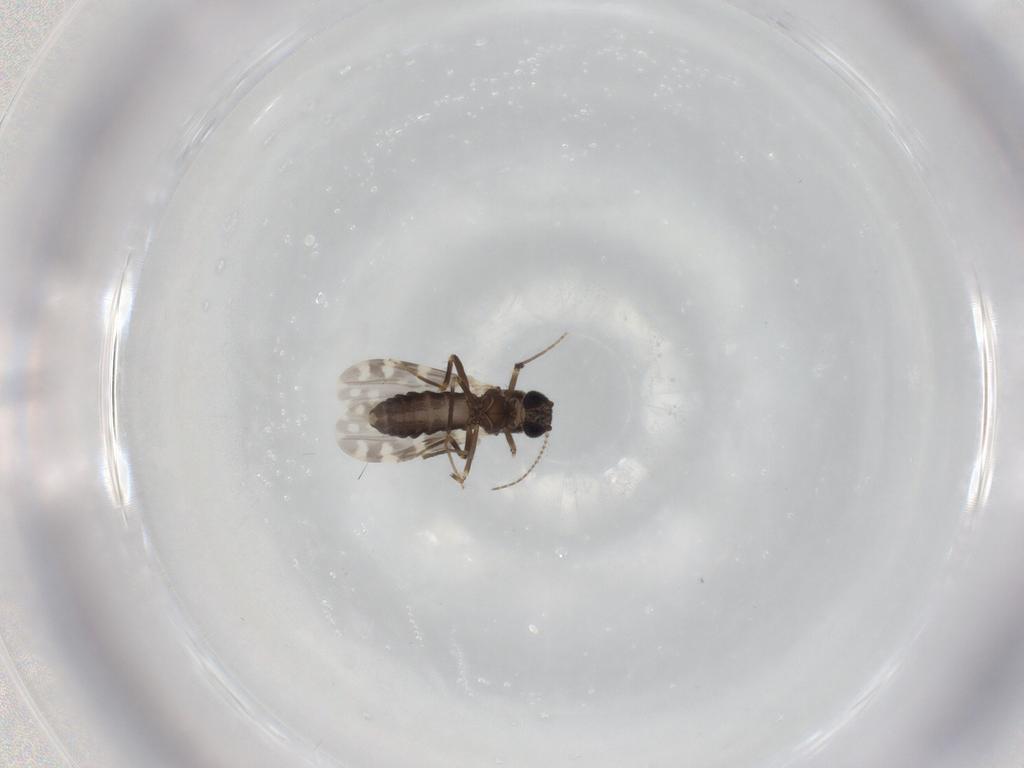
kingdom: Animalia
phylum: Arthropoda
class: Insecta
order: Diptera
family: Ceratopogonidae
